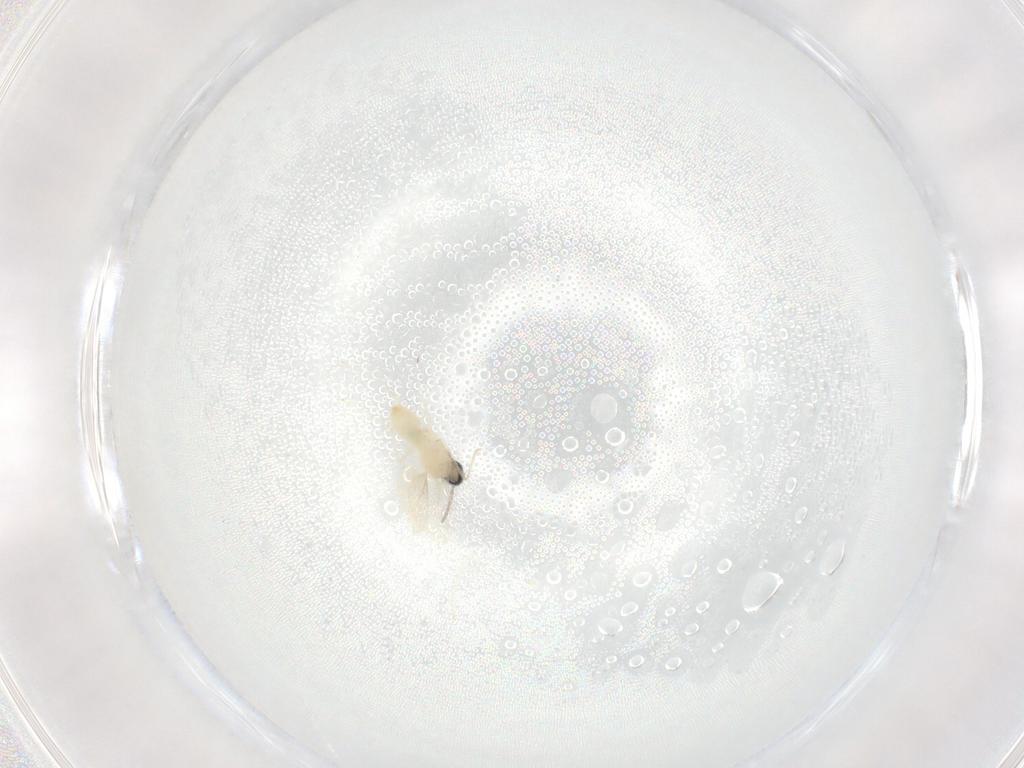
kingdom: Animalia
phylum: Arthropoda
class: Insecta
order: Diptera
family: Cecidomyiidae
